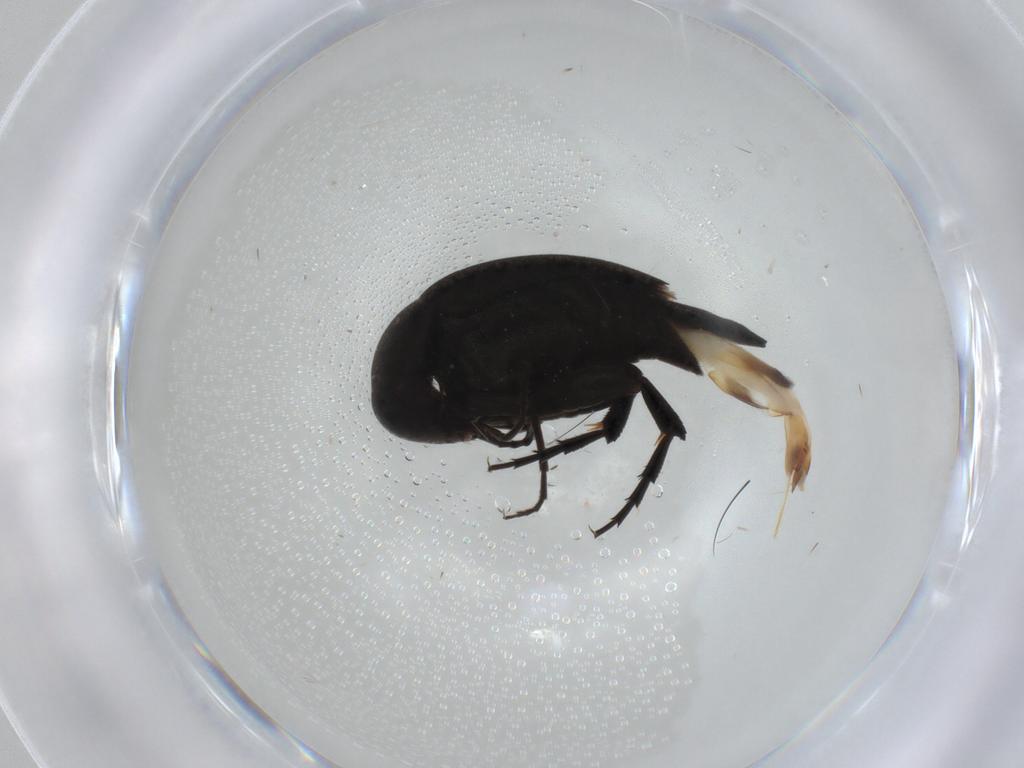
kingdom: Animalia
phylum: Arthropoda
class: Insecta
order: Coleoptera
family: Mordellidae
